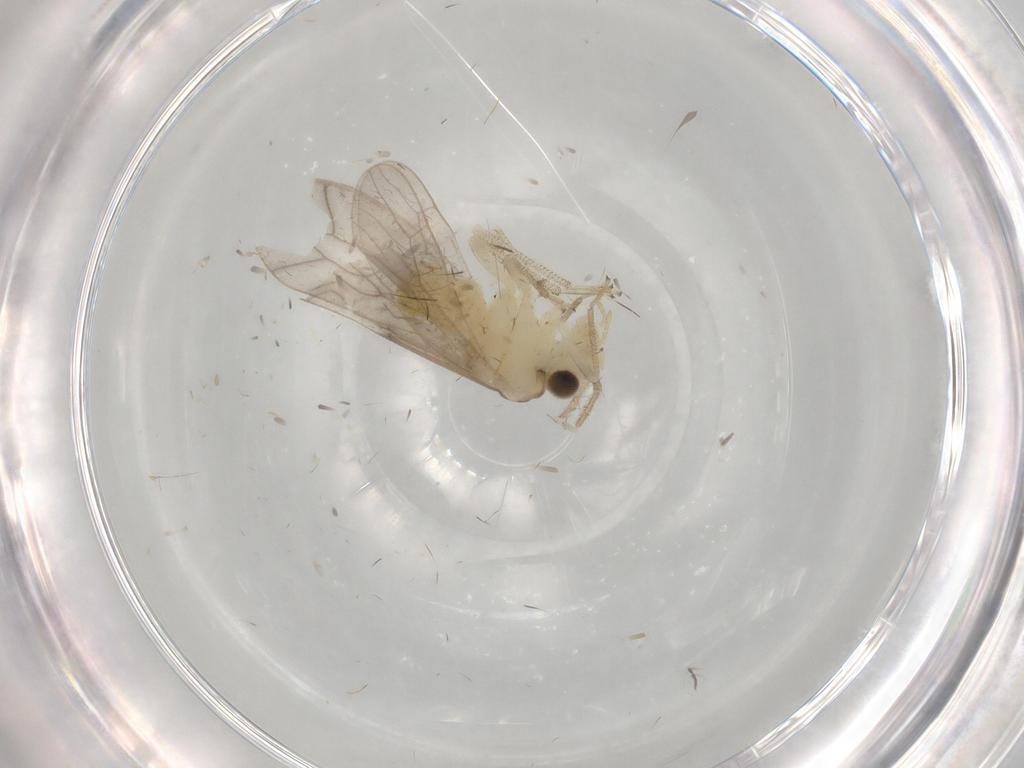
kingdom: Animalia
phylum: Arthropoda
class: Insecta
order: Psocodea
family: Caeciliusidae
